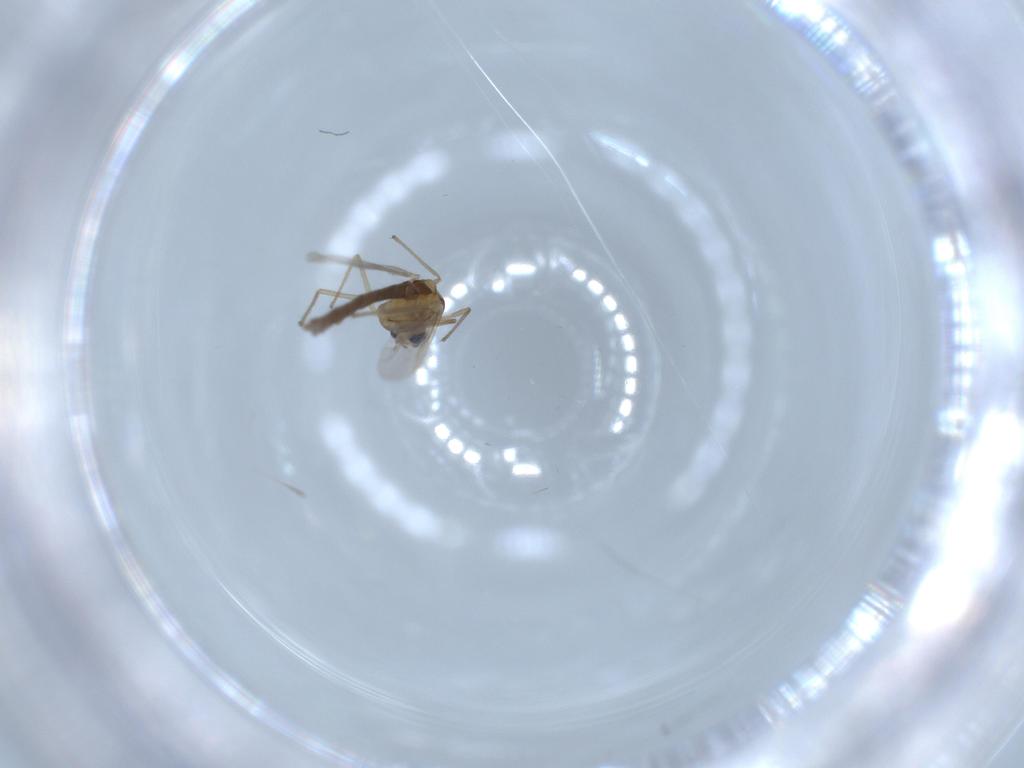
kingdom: Animalia
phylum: Arthropoda
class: Insecta
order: Diptera
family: Chironomidae
